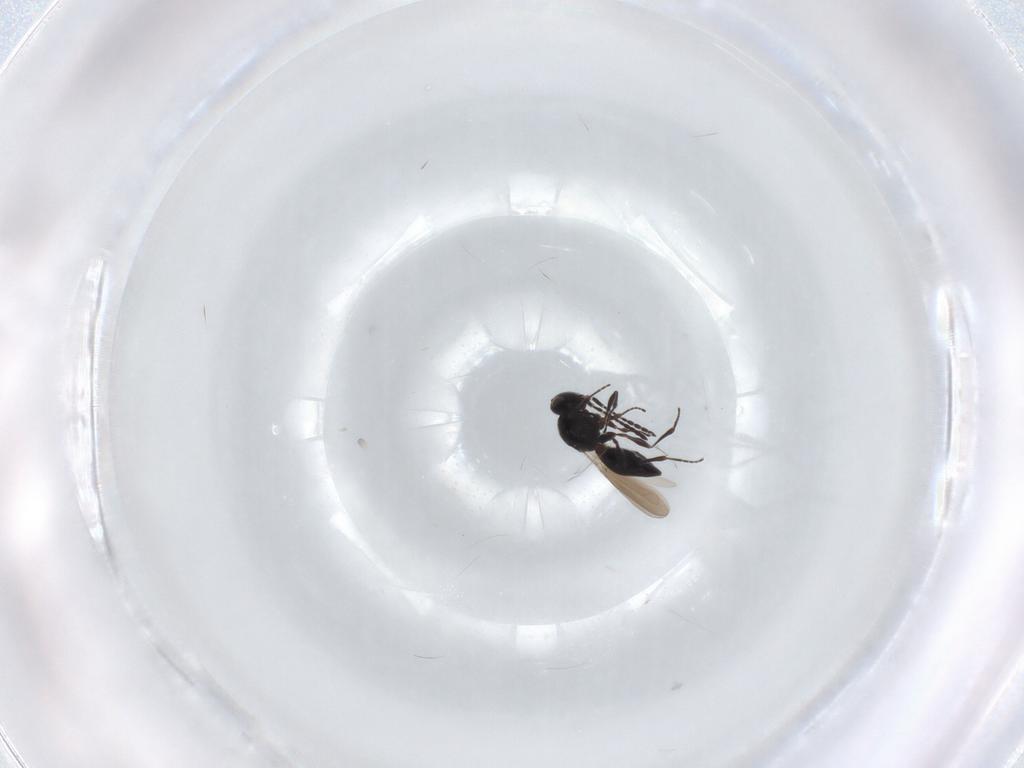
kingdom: Animalia
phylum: Arthropoda
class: Insecta
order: Hymenoptera
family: Platygastridae
